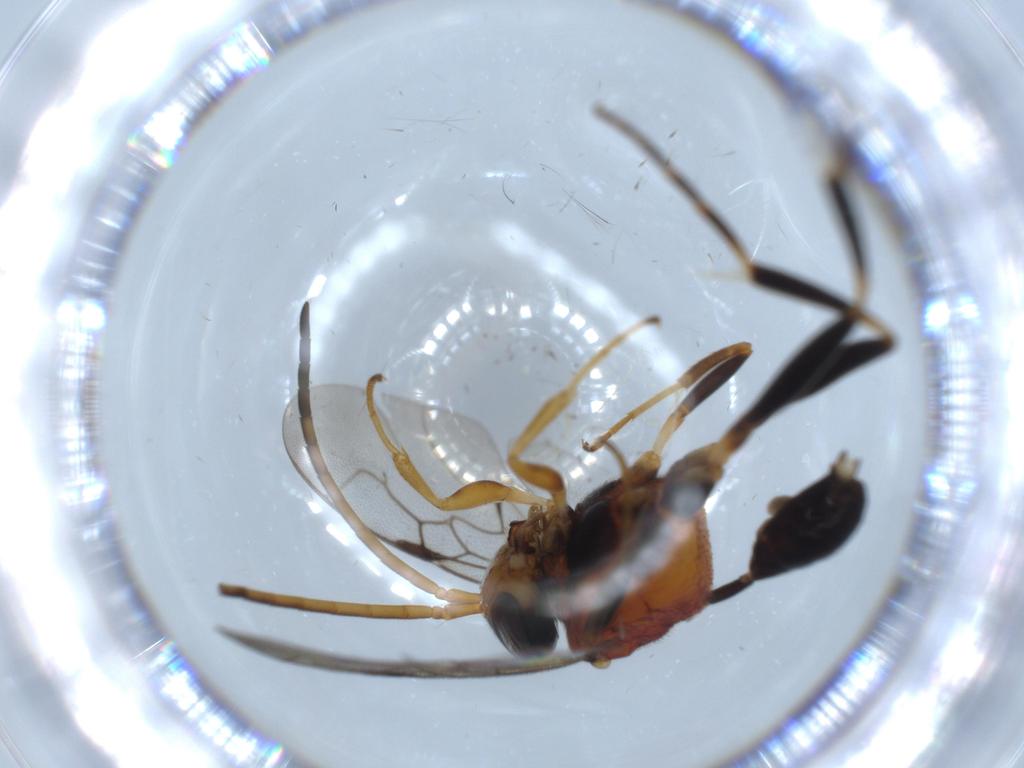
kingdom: Animalia
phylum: Arthropoda
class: Insecta
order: Hymenoptera
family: Evaniidae
